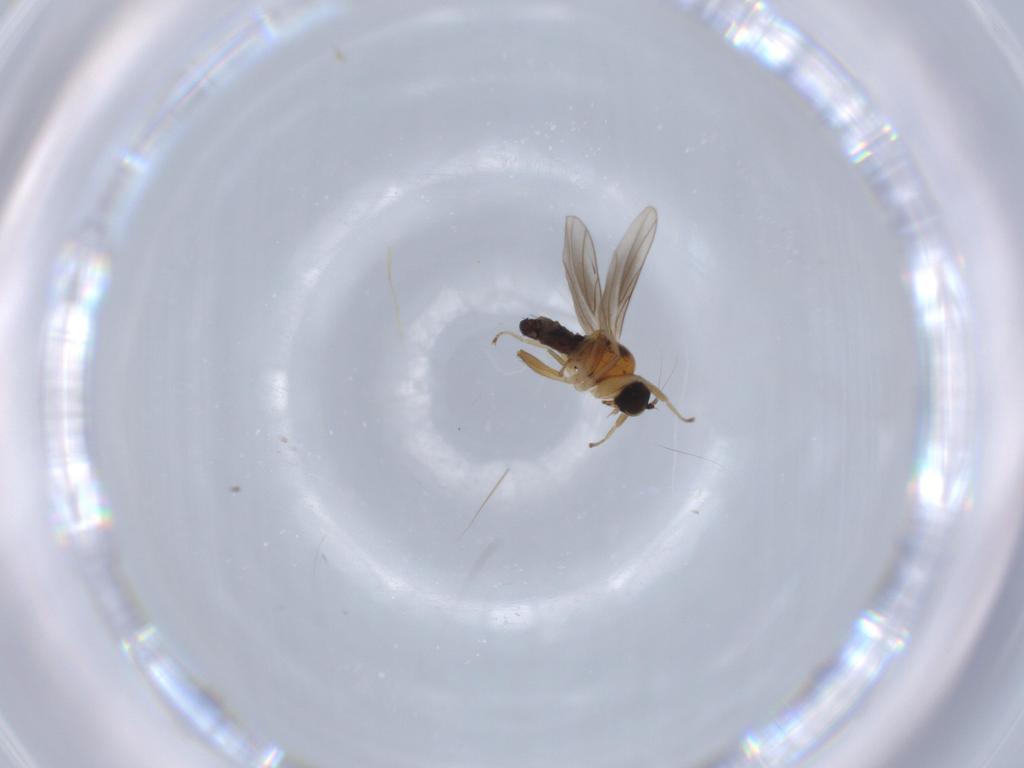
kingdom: Animalia
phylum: Arthropoda
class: Insecta
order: Diptera
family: Hybotidae
